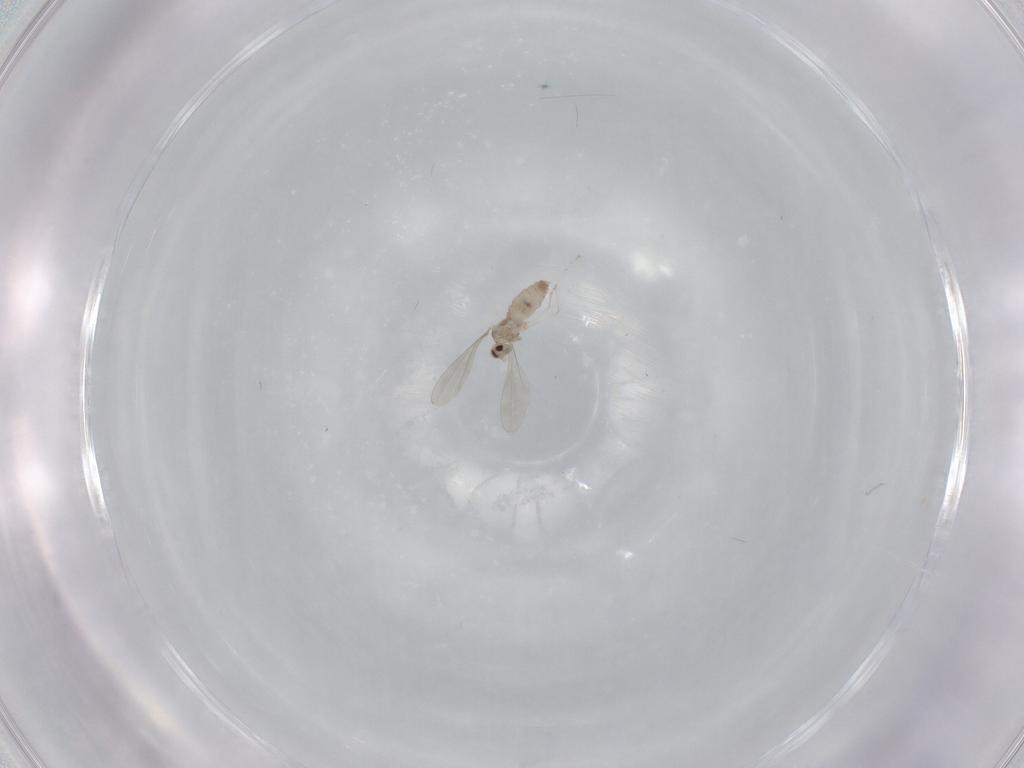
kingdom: Animalia
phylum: Arthropoda
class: Insecta
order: Diptera
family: Cecidomyiidae
